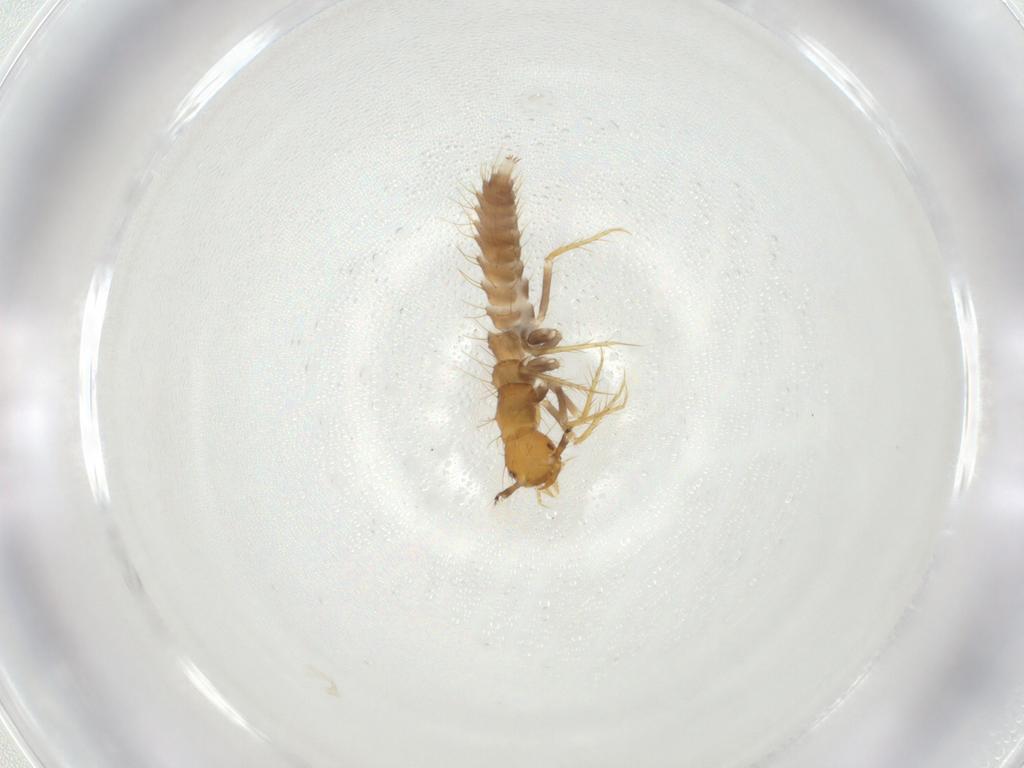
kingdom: Animalia
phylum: Arthropoda
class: Insecta
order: Coleoptera
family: Staphylinidae
